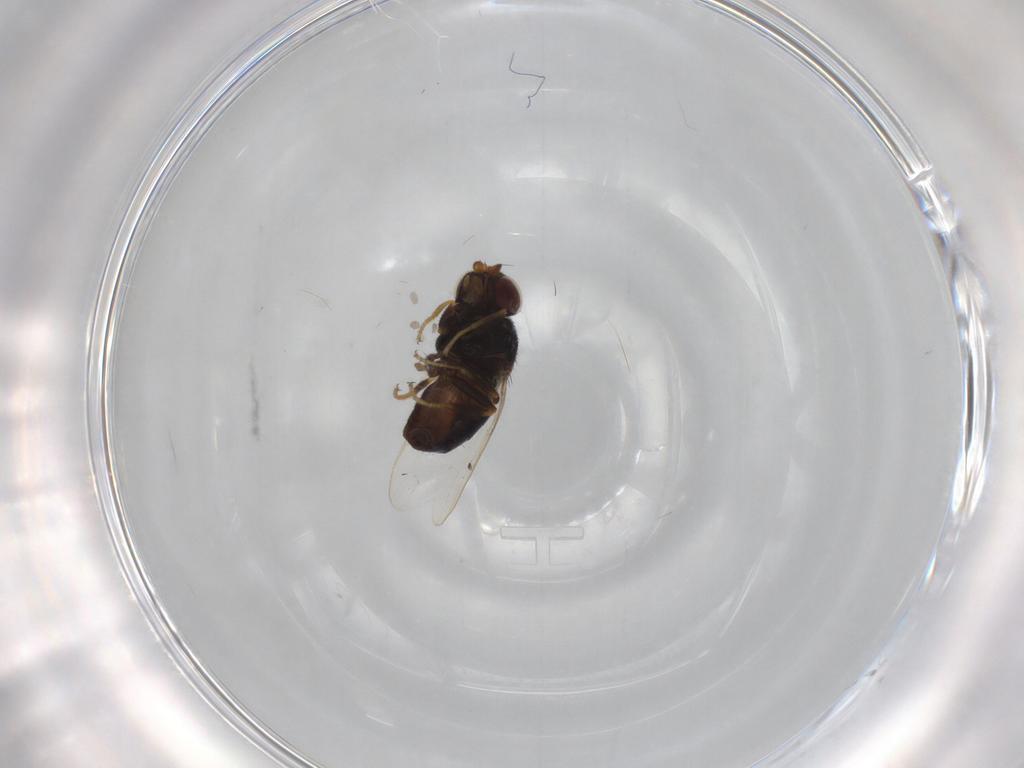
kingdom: Animalia
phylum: Arthropoda
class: Insecta
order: Diptera
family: Chloropidae
